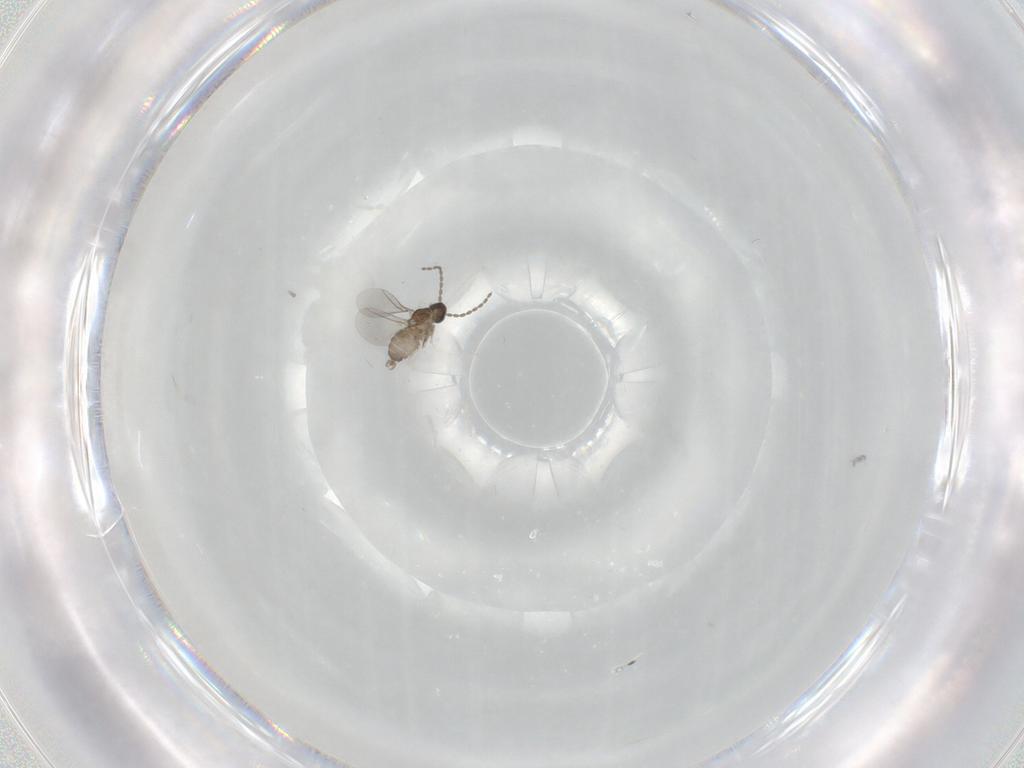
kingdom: Animalia
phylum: Arthropoda
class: Insecta
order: Diptera
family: Cecidomyiidae
